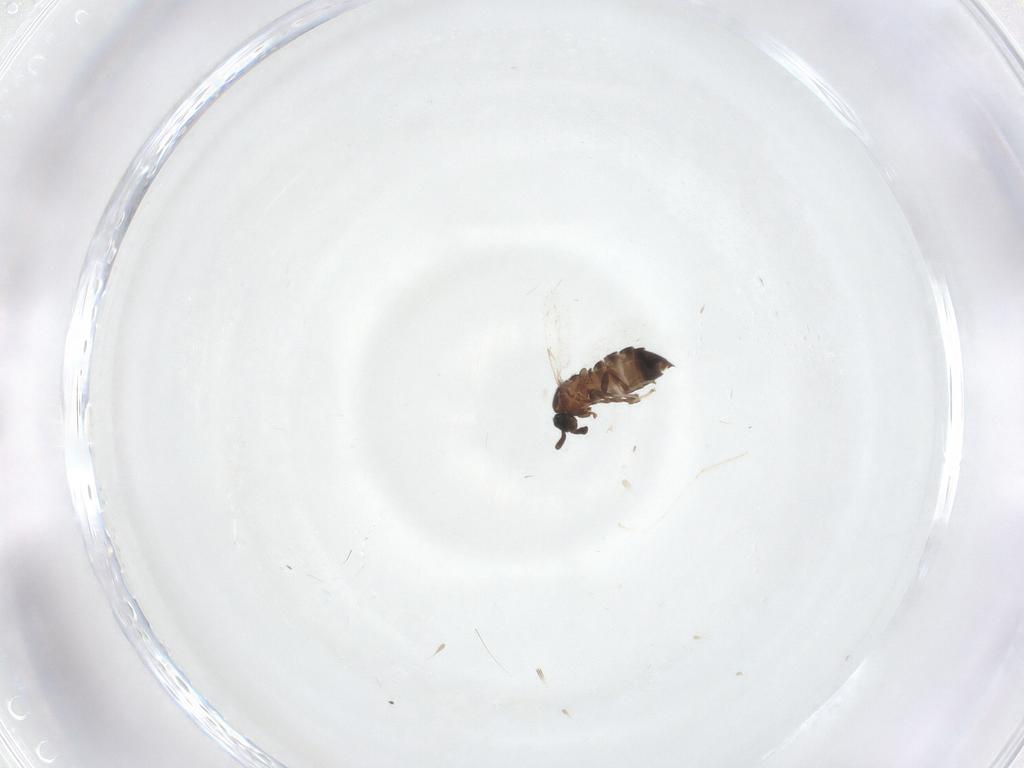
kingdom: Animalia
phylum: Arthropoda
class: Insecta
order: Diptera
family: Scatopsidae
